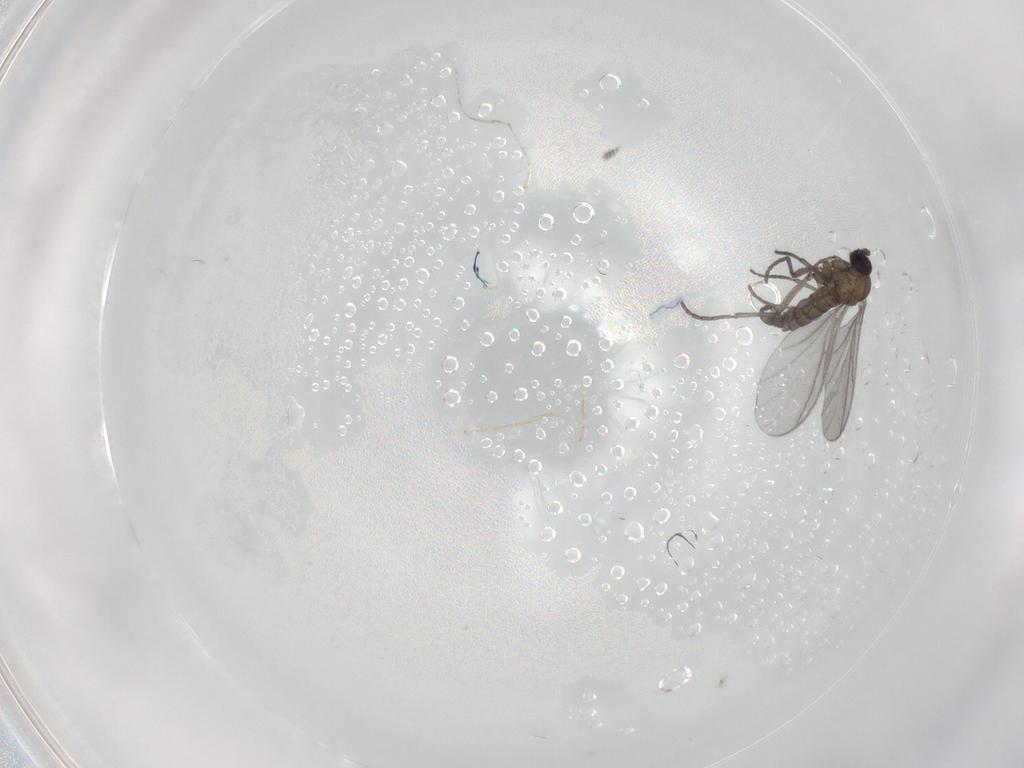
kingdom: Animalia
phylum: Arthropoda
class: Insecta
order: Diptera
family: Sciaridae
